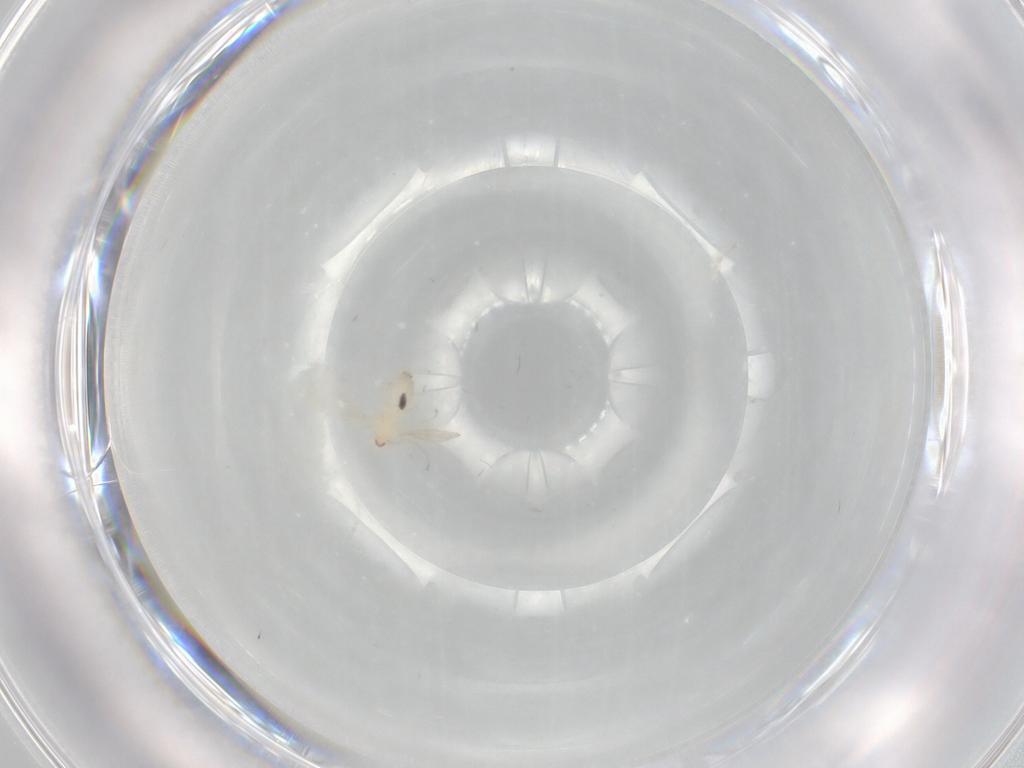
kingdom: Animalia
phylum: Arthropoda
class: Insecta
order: Diptera
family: Cecidomyiidae
